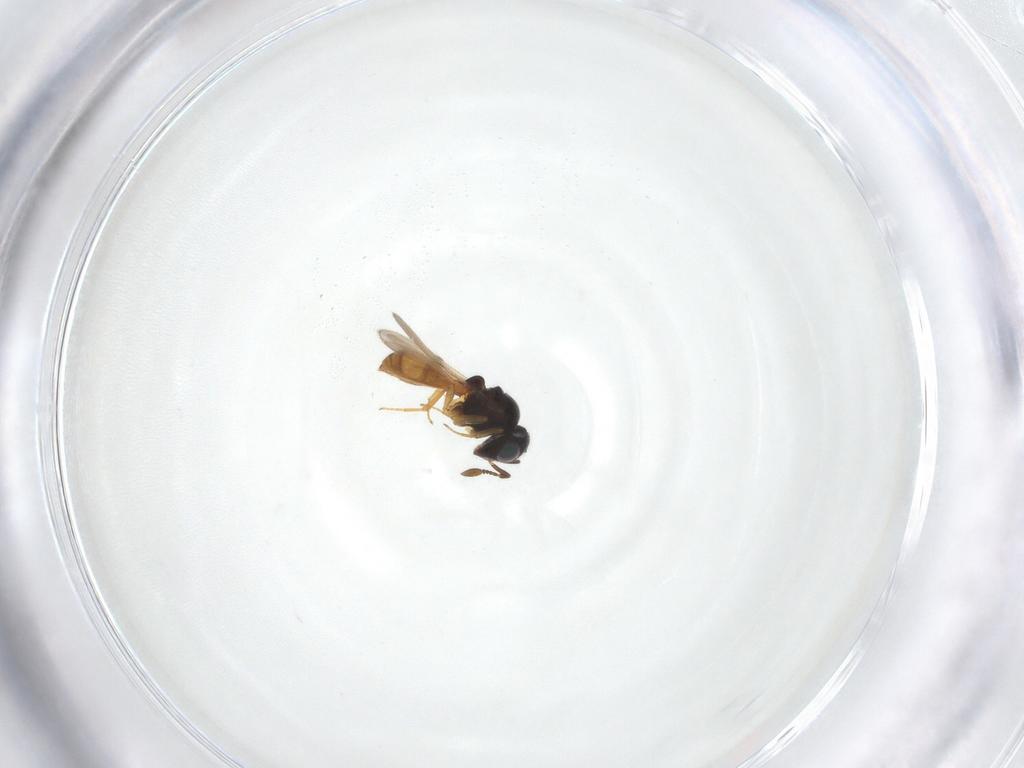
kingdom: Animalia
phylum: Arthropoda
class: Insecta
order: Hymenoptera
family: Scelionidae
